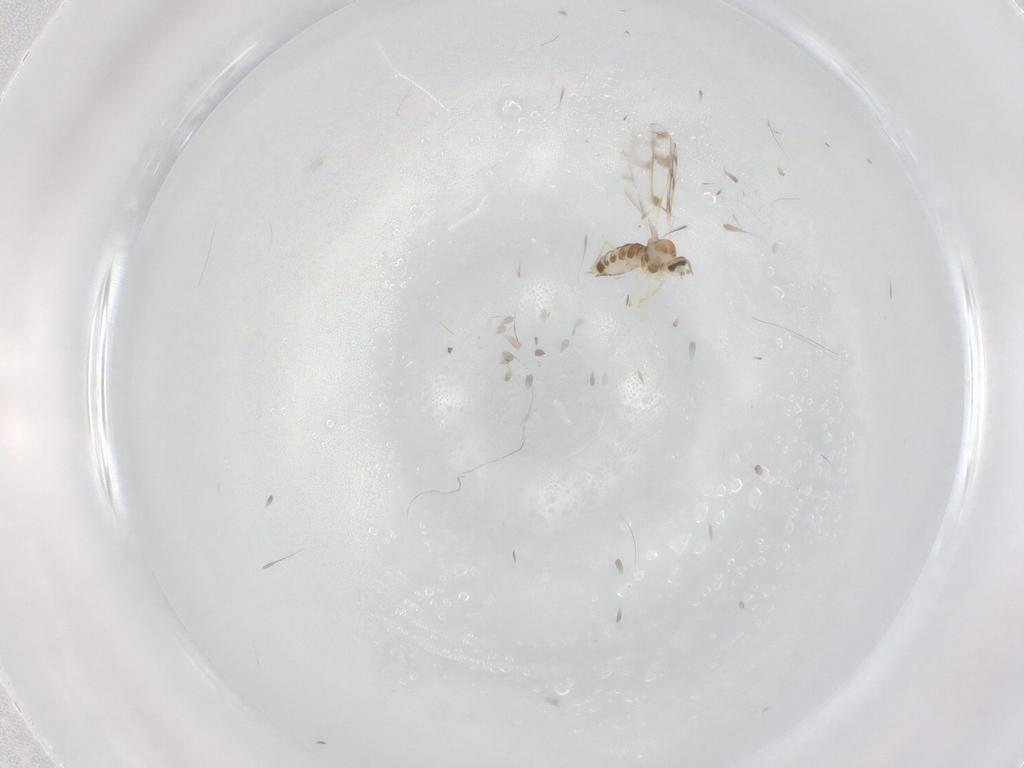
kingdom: Animalia
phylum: Arthropoda
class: Insecta
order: Diptera
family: Cecidomyiidae
